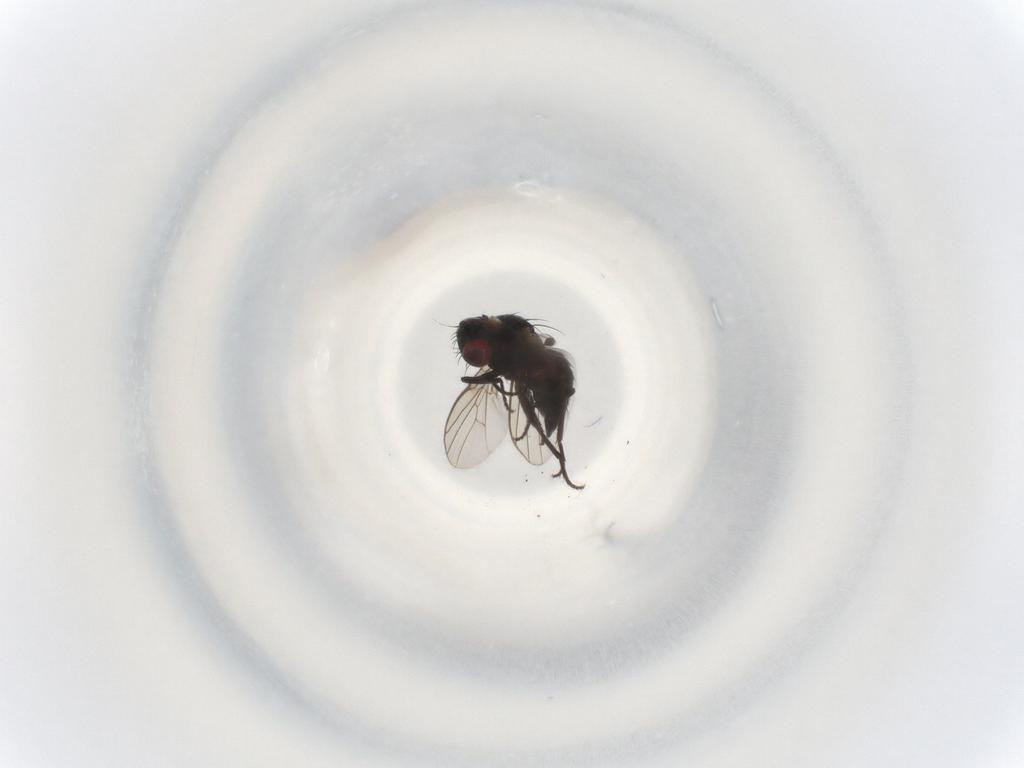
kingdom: Animalia
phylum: Arthropoda
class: Insecta
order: Diptera
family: Agromyzidae
